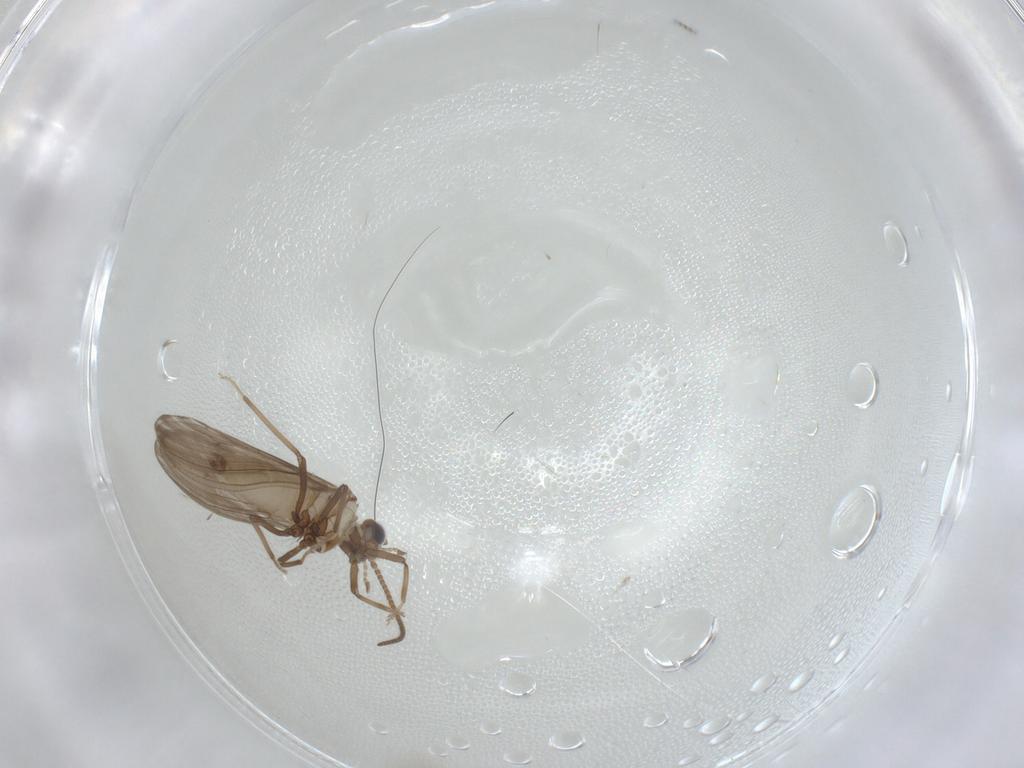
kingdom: Animalia
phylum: Arthropoda
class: Insecta
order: Neuroptera
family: Coniopterygidae
